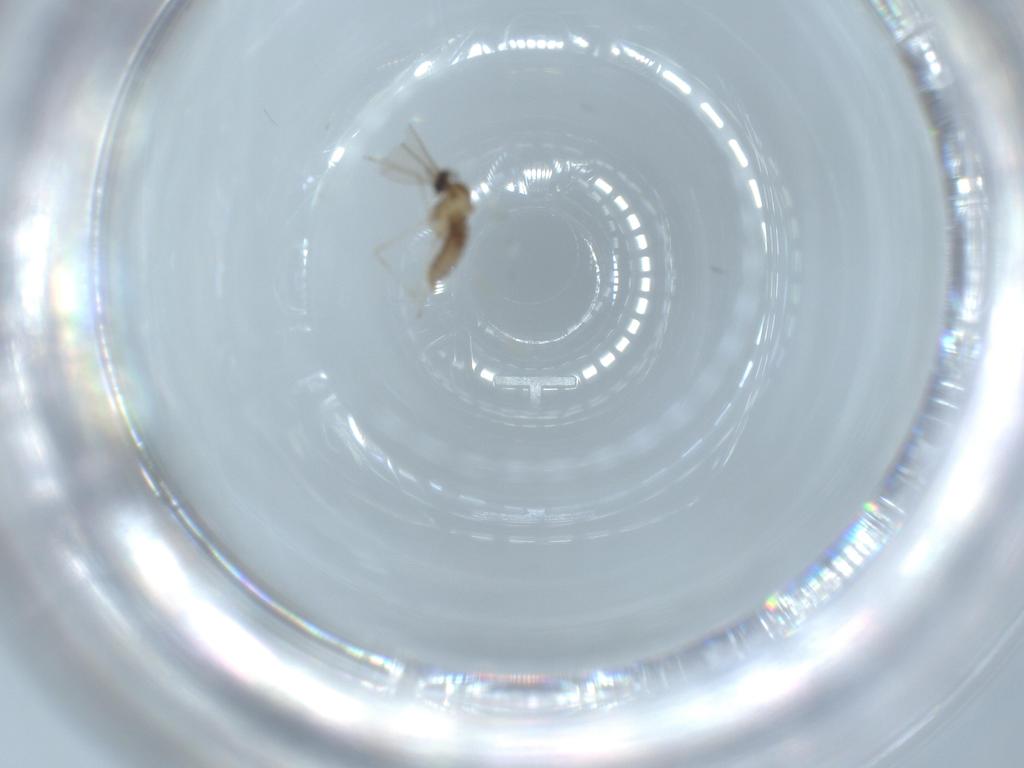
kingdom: Animalia
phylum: Arthropoda
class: Insecta
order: Diptera
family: Cecidomyiidae
